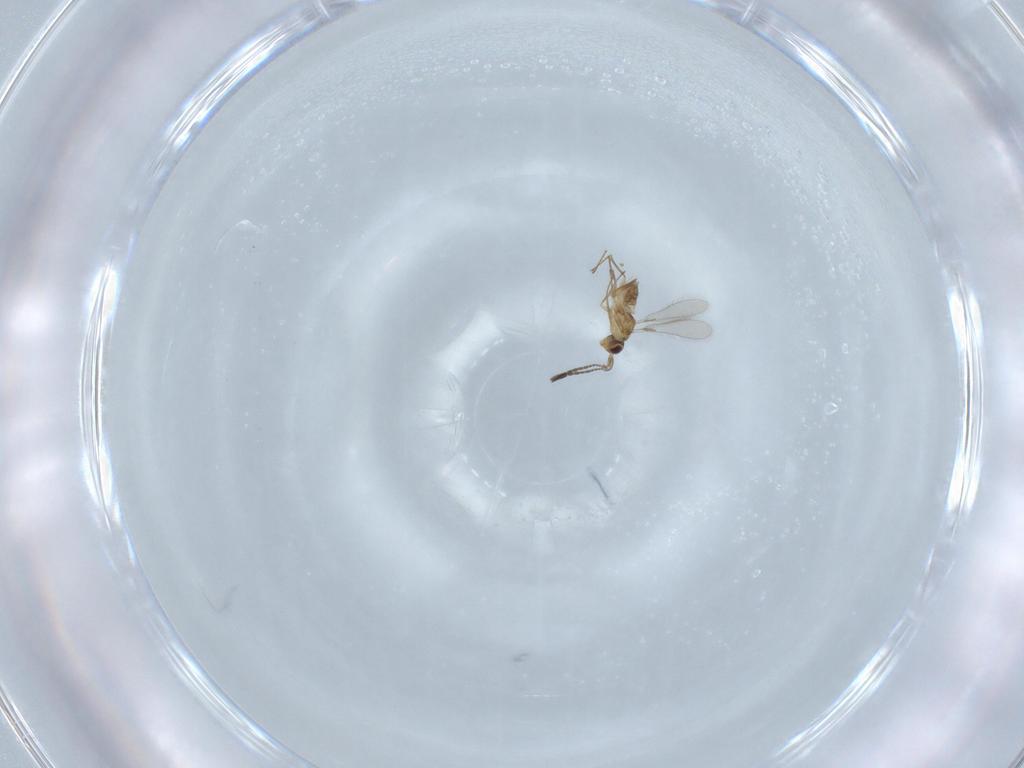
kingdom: Animalia
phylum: Arthropoda
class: Insecta
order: Hymenoptera
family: Mymaridae
